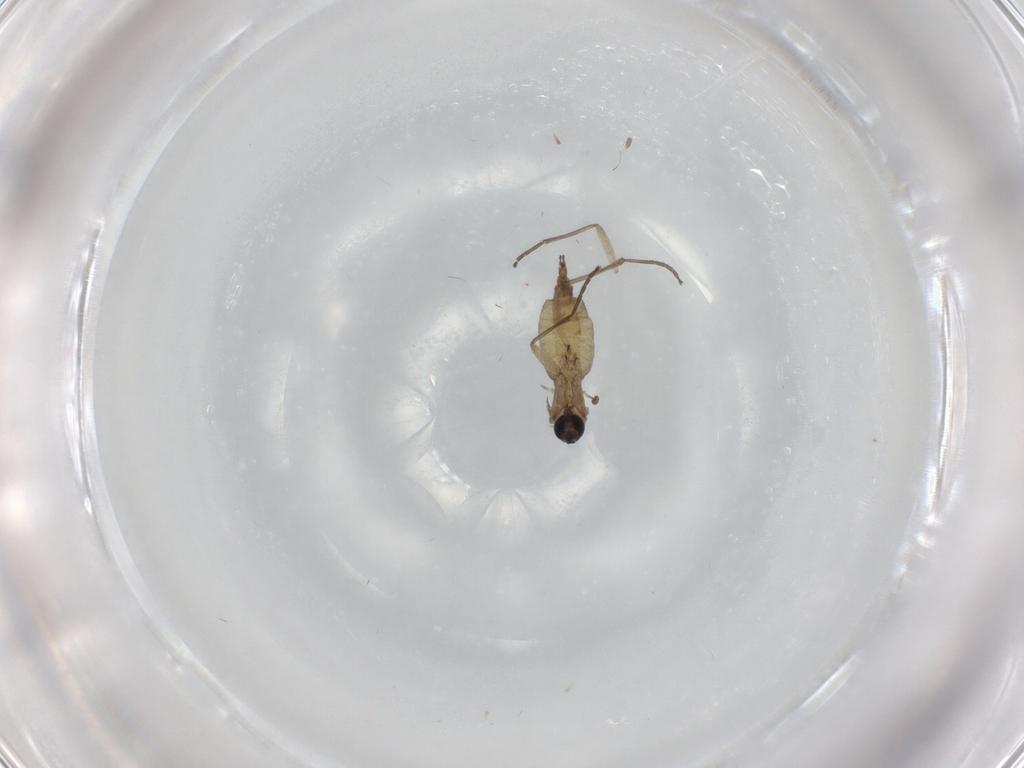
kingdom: Animalia
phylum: Arthropoda
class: Insecta
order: Diptera
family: Sciaridae
